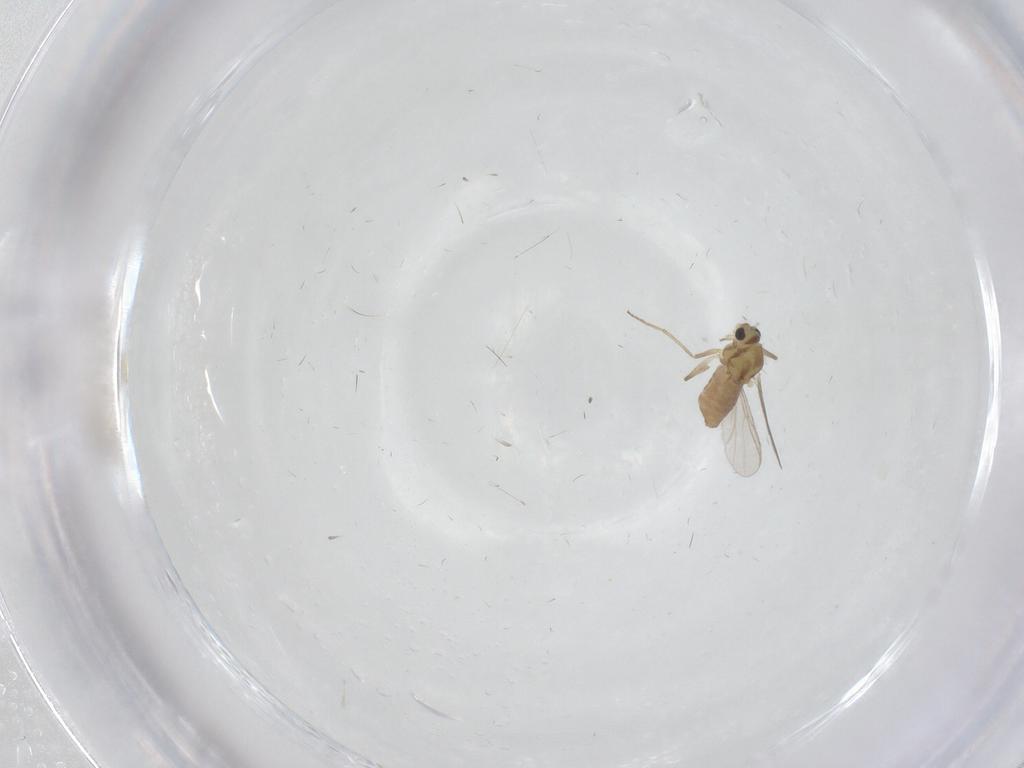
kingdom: Animalia
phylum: Arthropoda
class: Insecta
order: Diptera
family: Chironomidae
